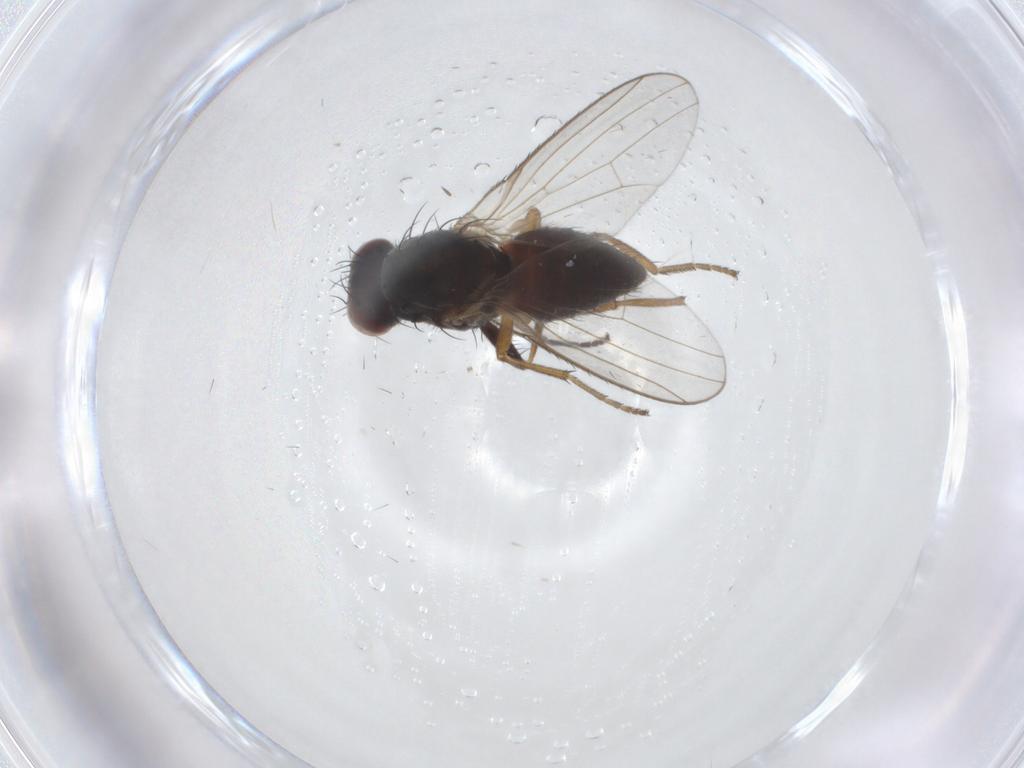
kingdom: Animalia
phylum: Arthropoda
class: Insecta
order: Diptera
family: Heleomyzidae
